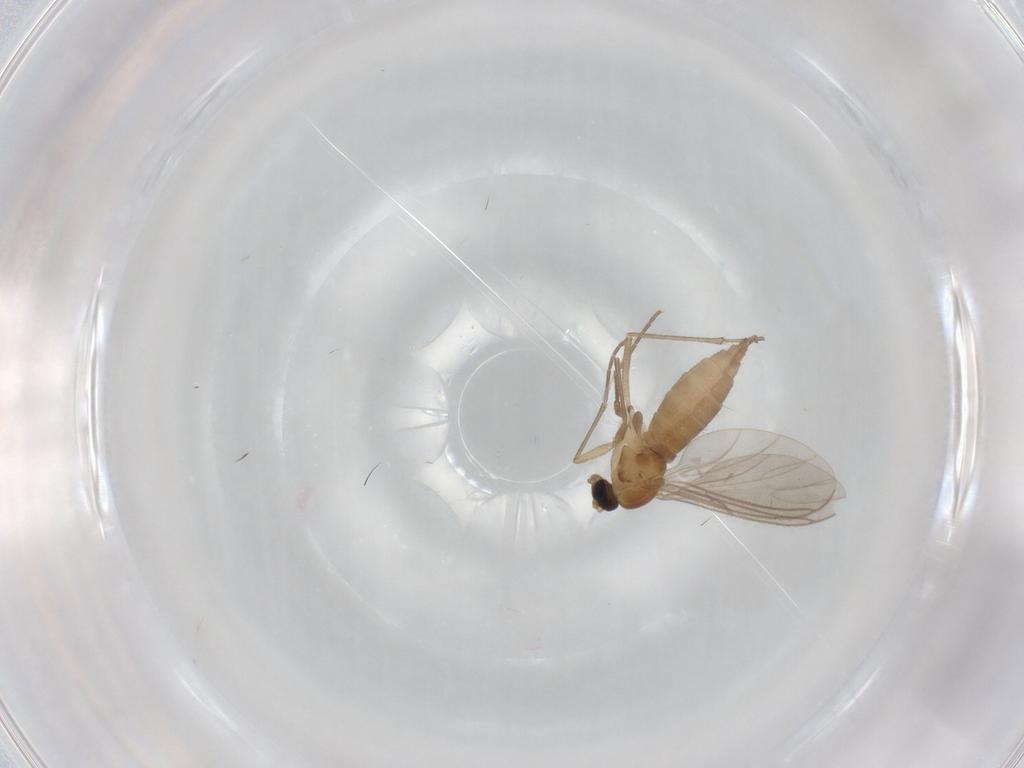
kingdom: Animalia
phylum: Arthropoda
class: Insecta
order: Diptera
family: Sciaridae
